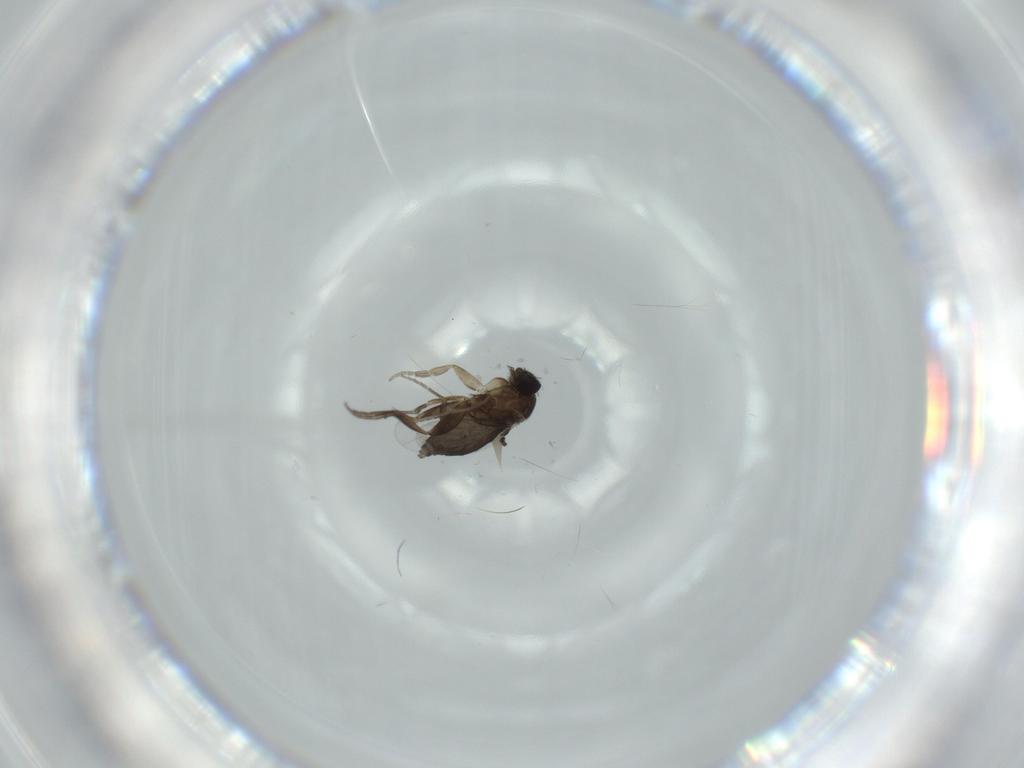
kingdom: Animalia
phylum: Arthropoda
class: Insecta
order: Diptera
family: Phoridae
